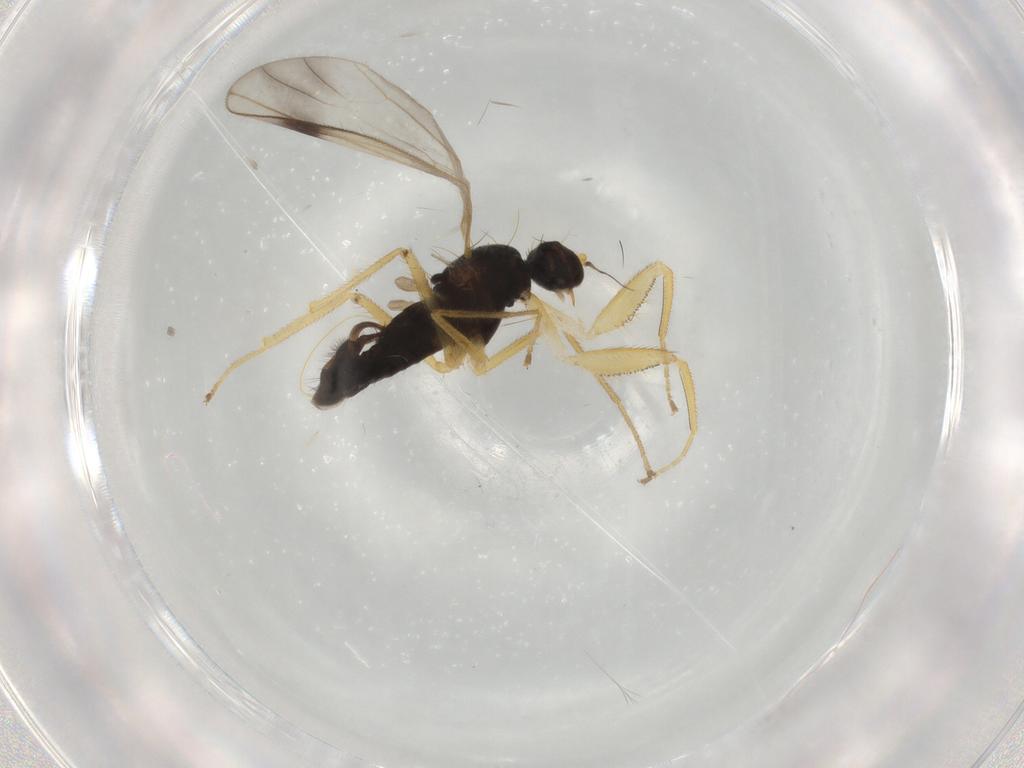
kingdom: Animalia
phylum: Arthropoda
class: Insecta
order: Diptera
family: Empididae
